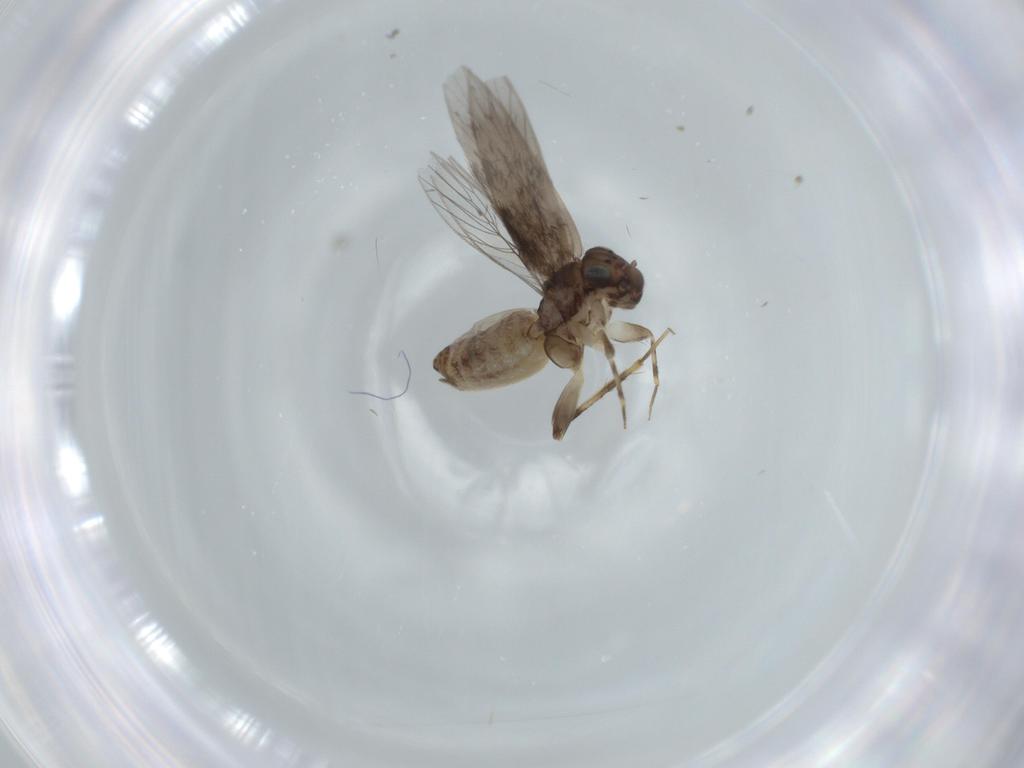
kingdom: Animalia
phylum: Arthropoda
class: Insecta
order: Psocodea
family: Lepidopsocidae
